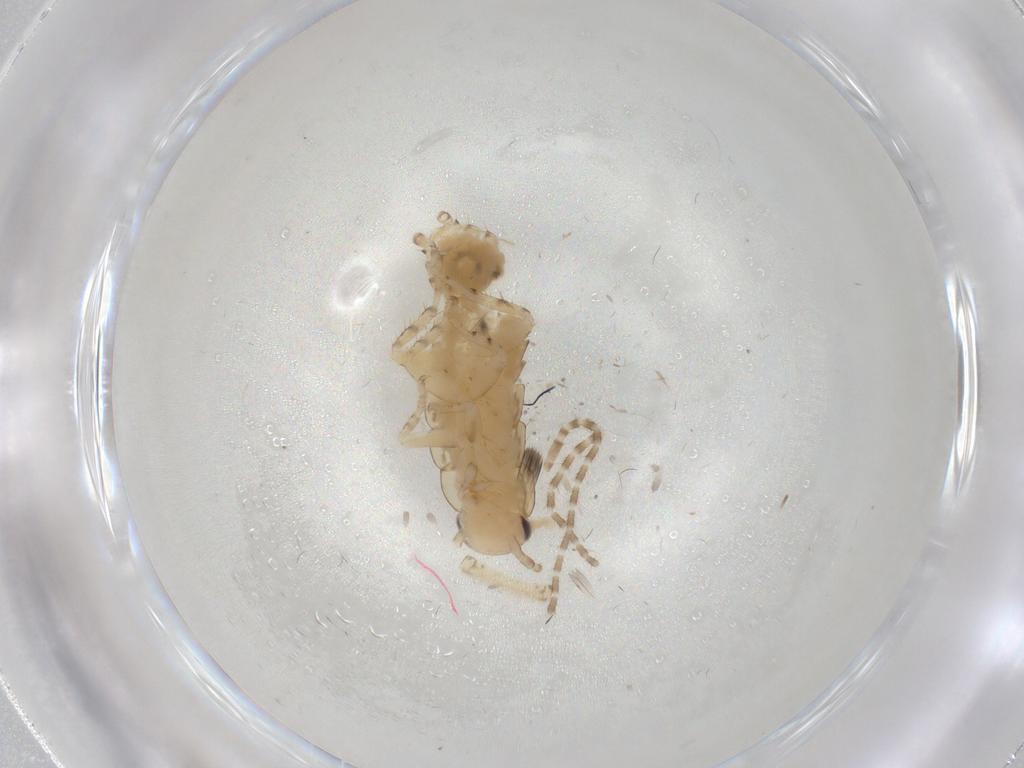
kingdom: Animalia
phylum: Arthropoda
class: Insecta
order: Blattodea
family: Ectobiidae
